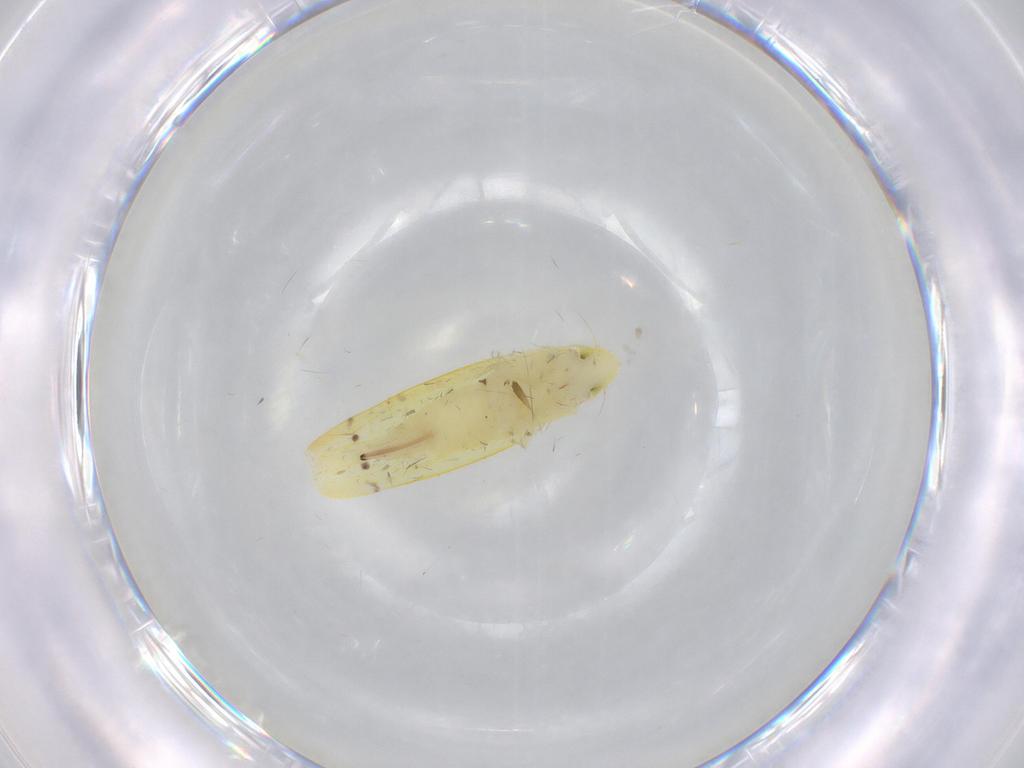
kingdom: Animalia
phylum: Arthropoda
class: Insecta
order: Hemiptera
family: Cicadellidae
